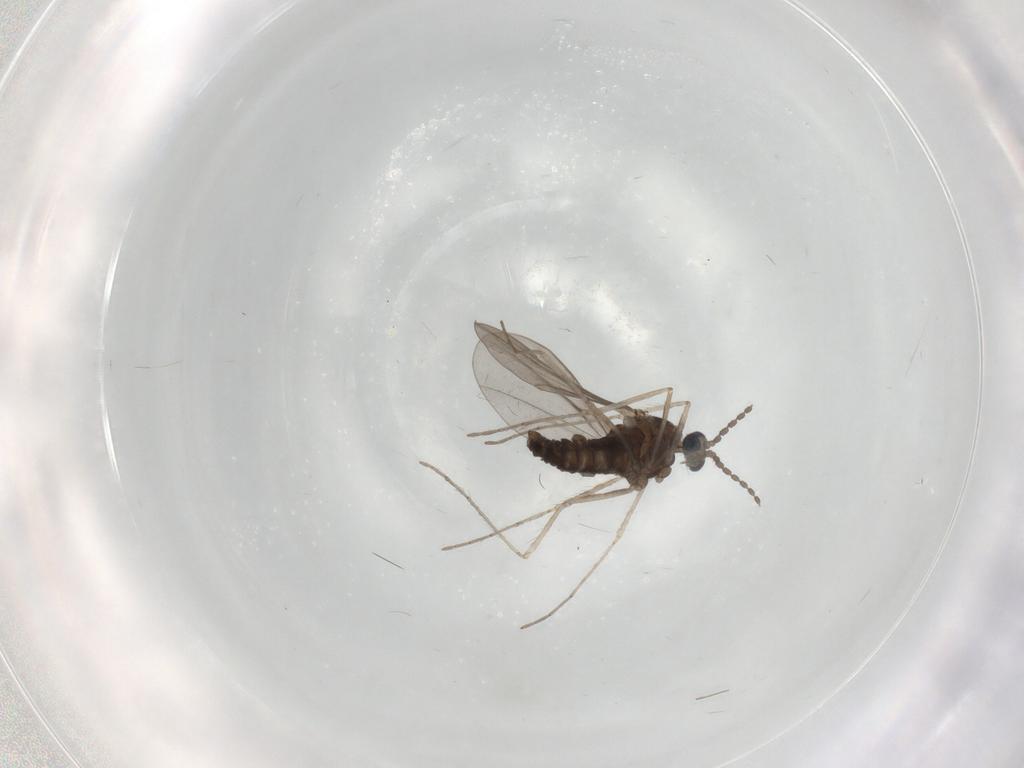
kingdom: Animalia
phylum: Arthropoda
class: Insecta
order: Diptera
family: Chironomidae
